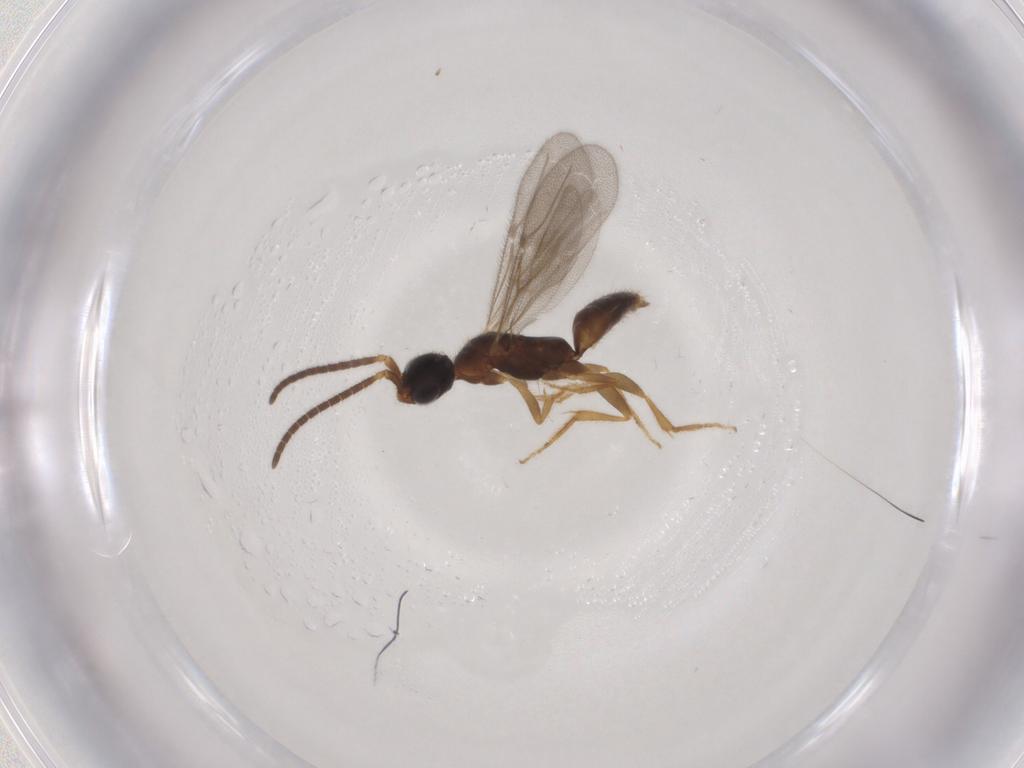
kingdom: Animalia
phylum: Arthropoda
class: Insecta
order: Hymenoptera
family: Bethylidae
